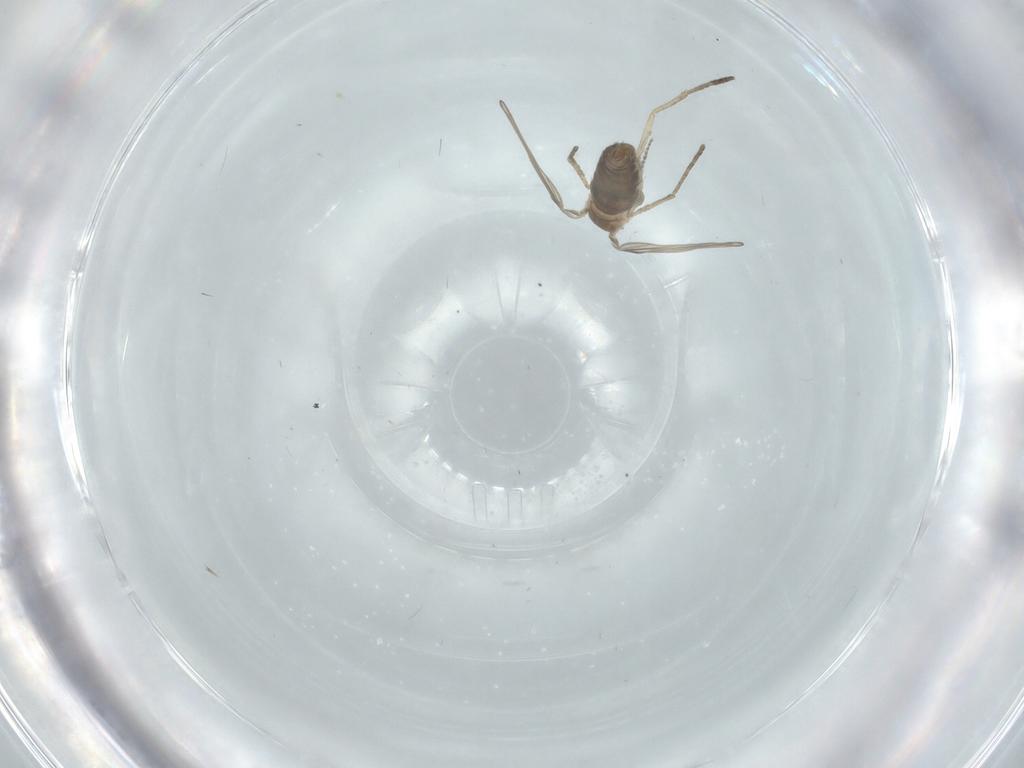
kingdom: Animalia
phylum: Arthropoda
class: Insecta
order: Diptera
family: Chironomidae
